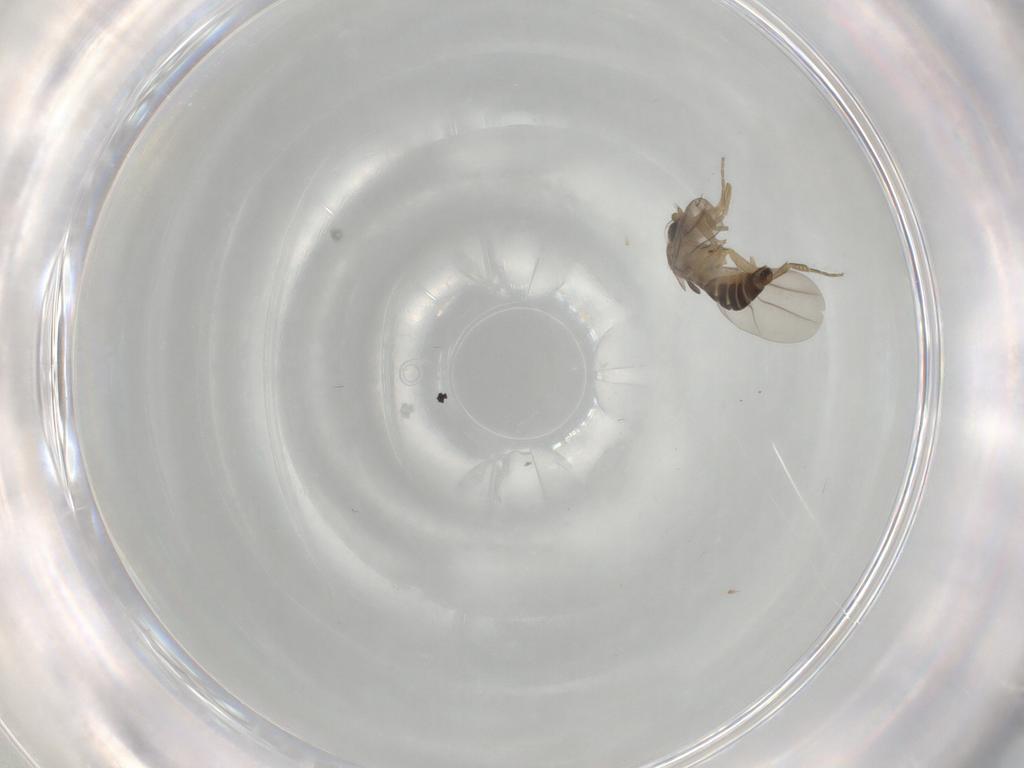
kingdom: Animalia
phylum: Arthropoda
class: Insecta
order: Diptera
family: Phoridae
